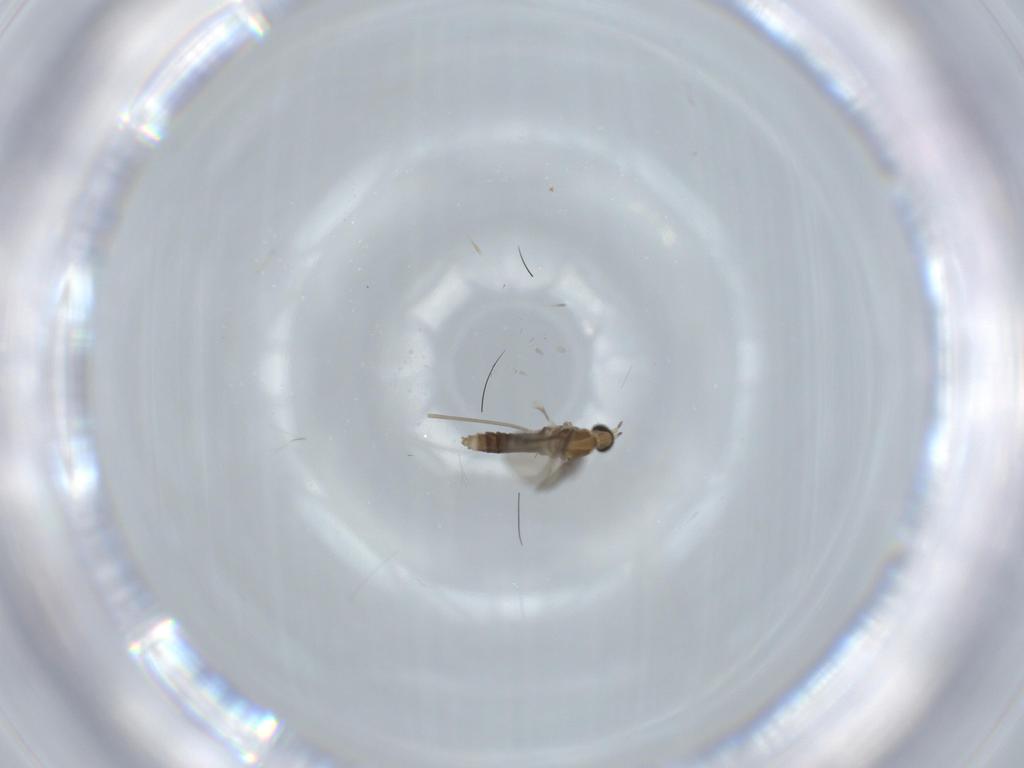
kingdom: Animalia
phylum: Arthropoda
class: Insecta
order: Diptera
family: Cecidomyiidae
